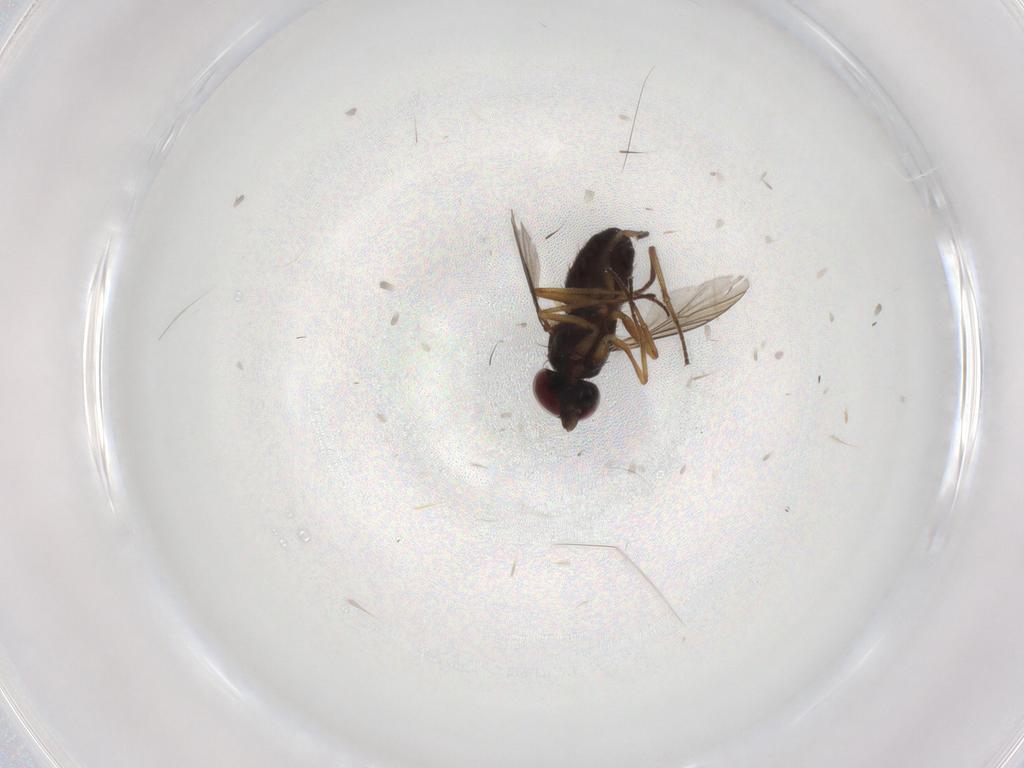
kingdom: Animalia
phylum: Arthropoda
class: Insecta
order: Diptera
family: Dolichopodidae
